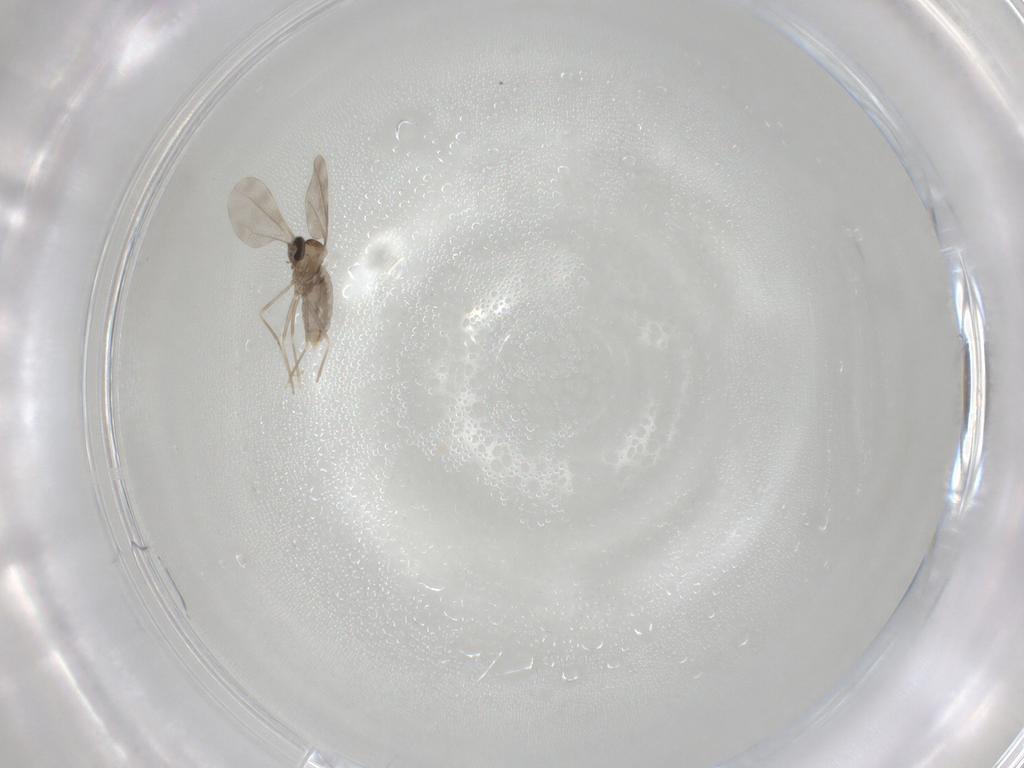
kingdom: Animalia
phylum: Arthropoda
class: Insecta
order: Diptera
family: Cecidomyiidae
